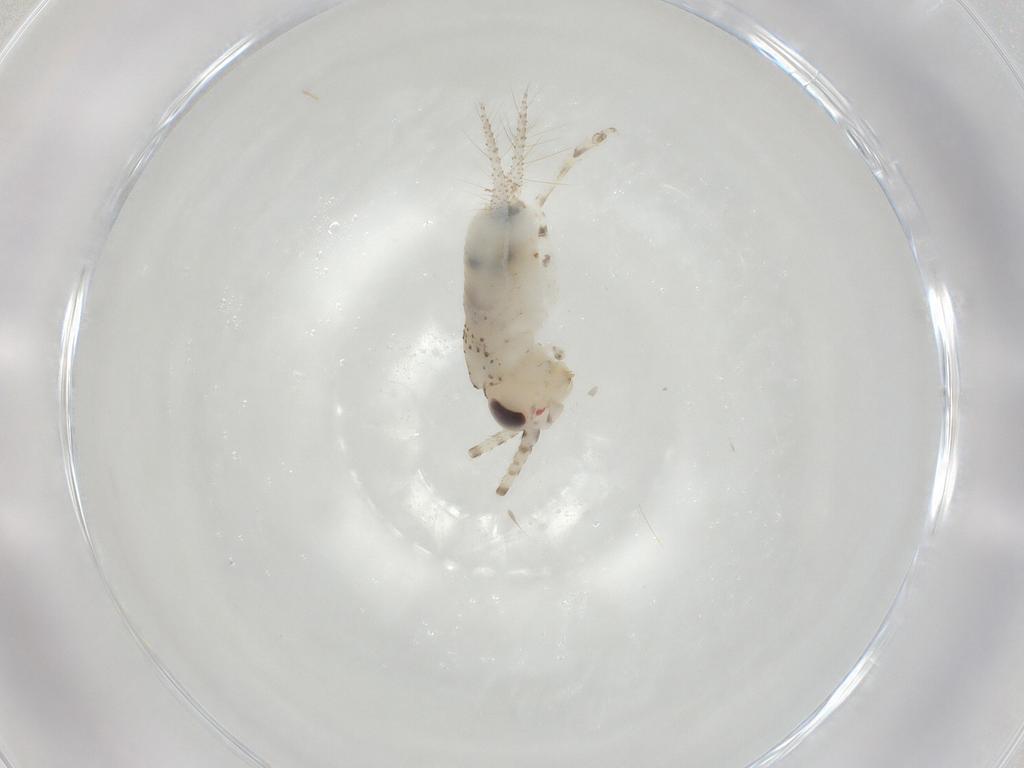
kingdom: Animalia
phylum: Arthropoda
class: Insecta
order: Orthoptera
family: Trigonidiidae
